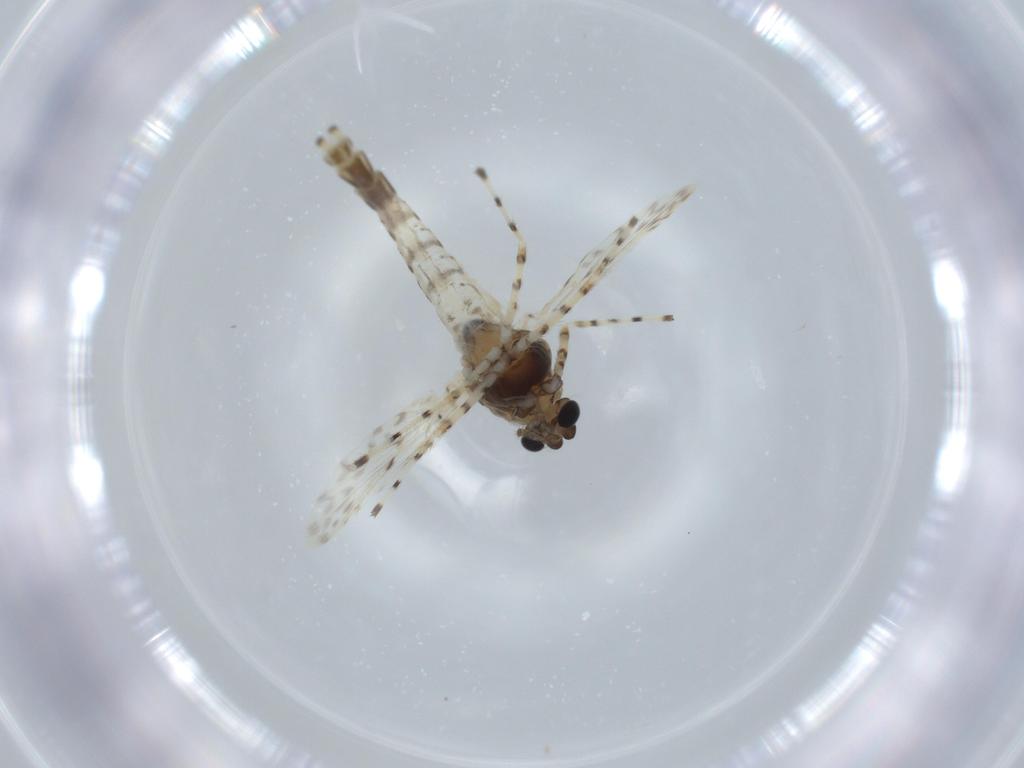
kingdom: Animalia
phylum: Arthropoda
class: Insecta
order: Diptera
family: Chironomidae
